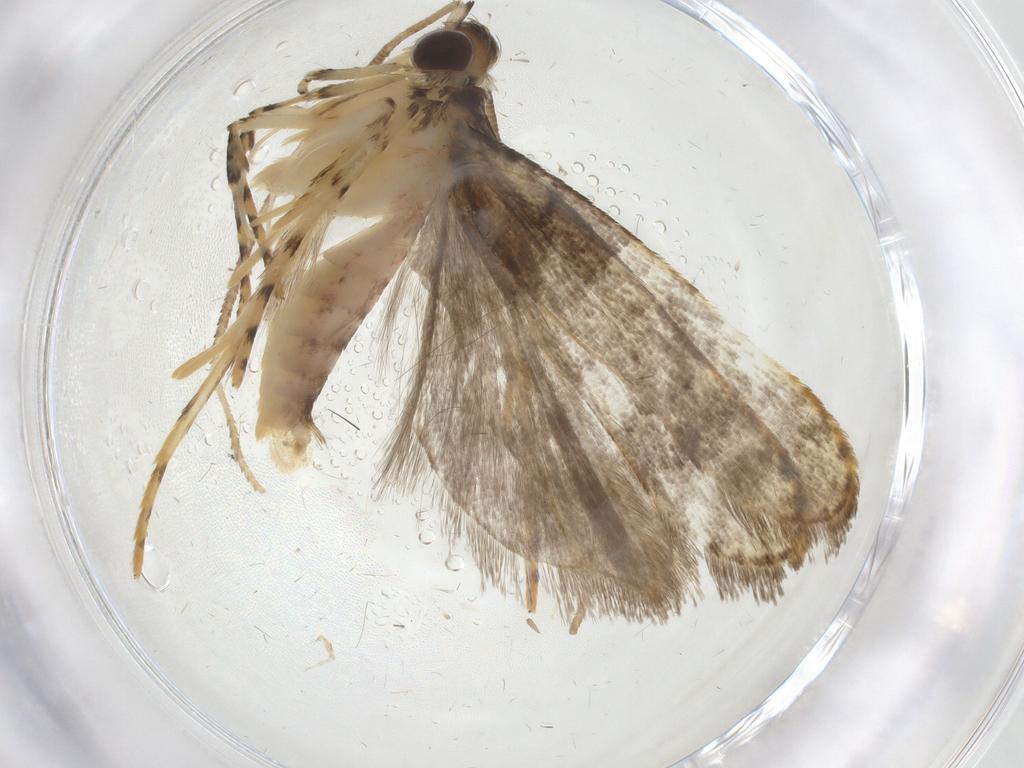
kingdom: Animalia
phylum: Arthropoda
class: Insecta
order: Lepidoptera
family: Oecophoridae
